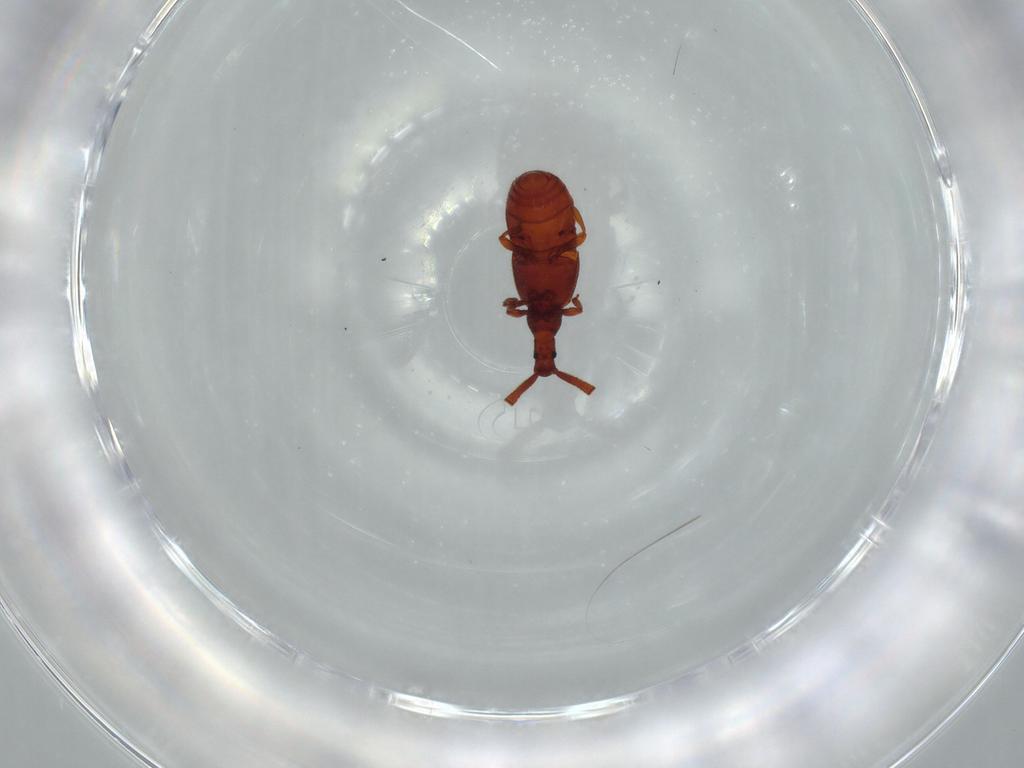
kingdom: Animalia
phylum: Arthropoda
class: Insecta
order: Coleoptera
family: Staphylinidae
